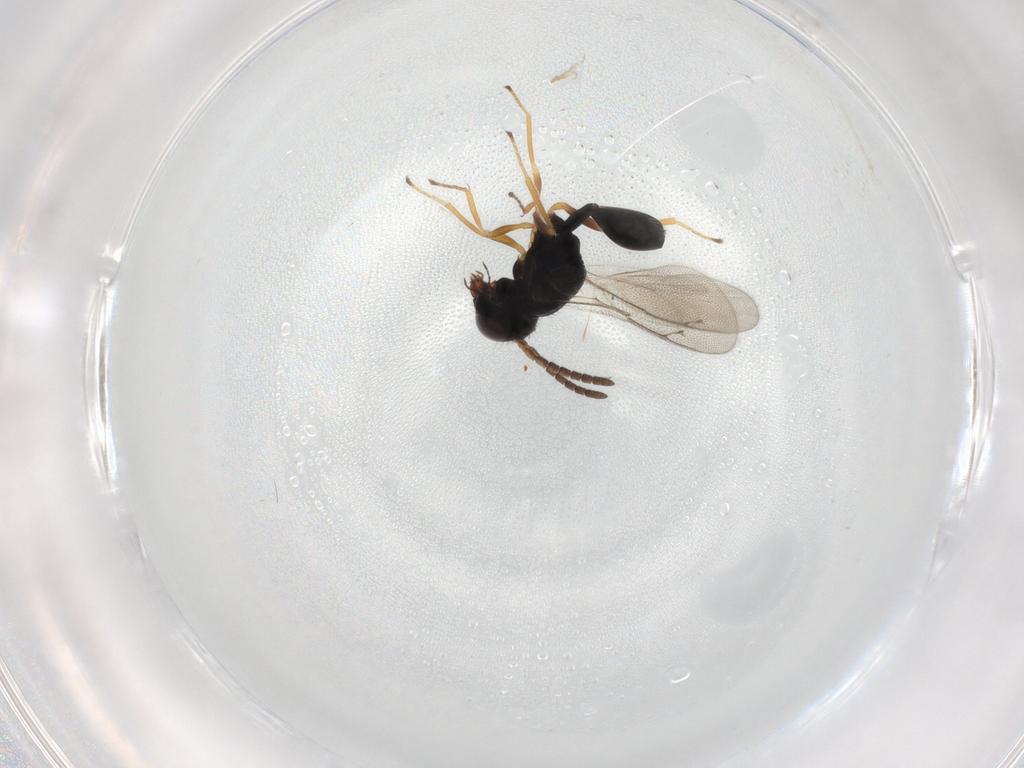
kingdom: Animalia
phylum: Arthropoda
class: Insecta
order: Hymenoptera
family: Pteromalidae
